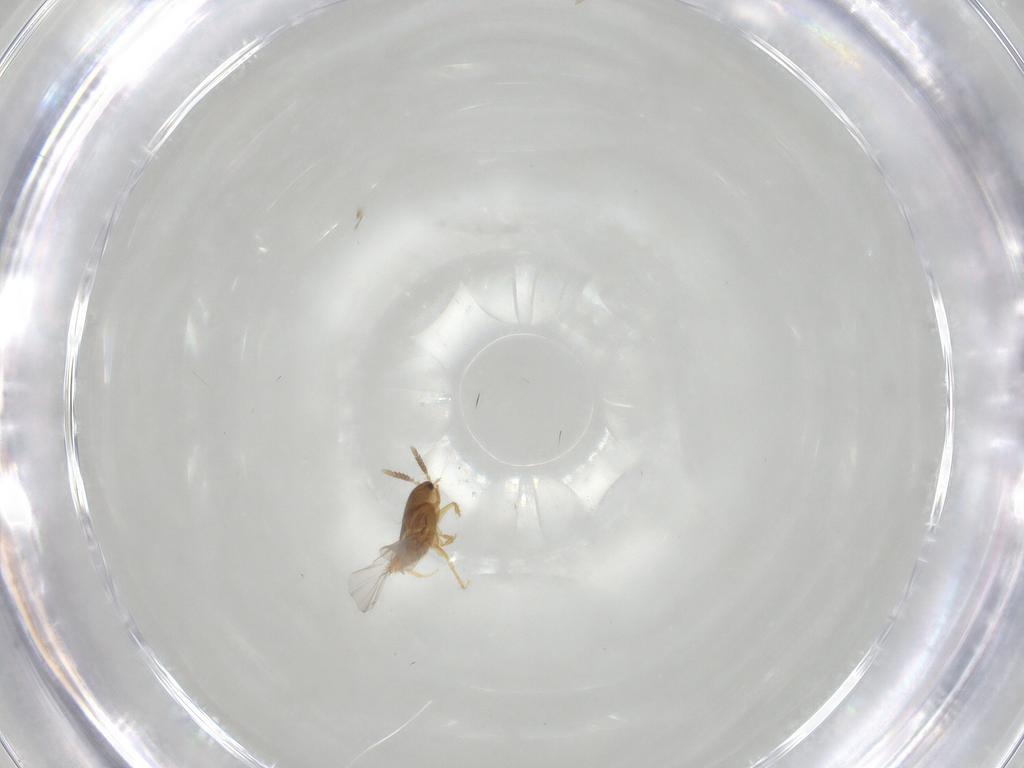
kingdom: Animalia
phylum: Arthropoda
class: Insecta
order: Coleoptera
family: Staphylinidae
